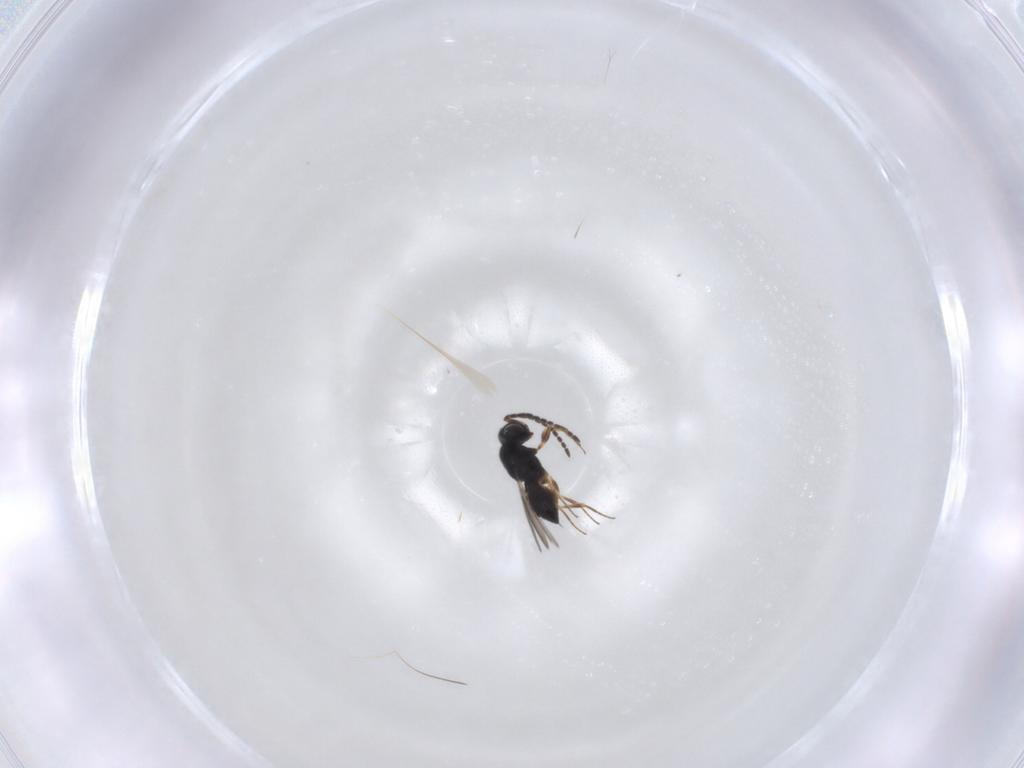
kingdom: Animalia
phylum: Arthropoda
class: Insecta
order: Hymenoptera
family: Scelionidae
